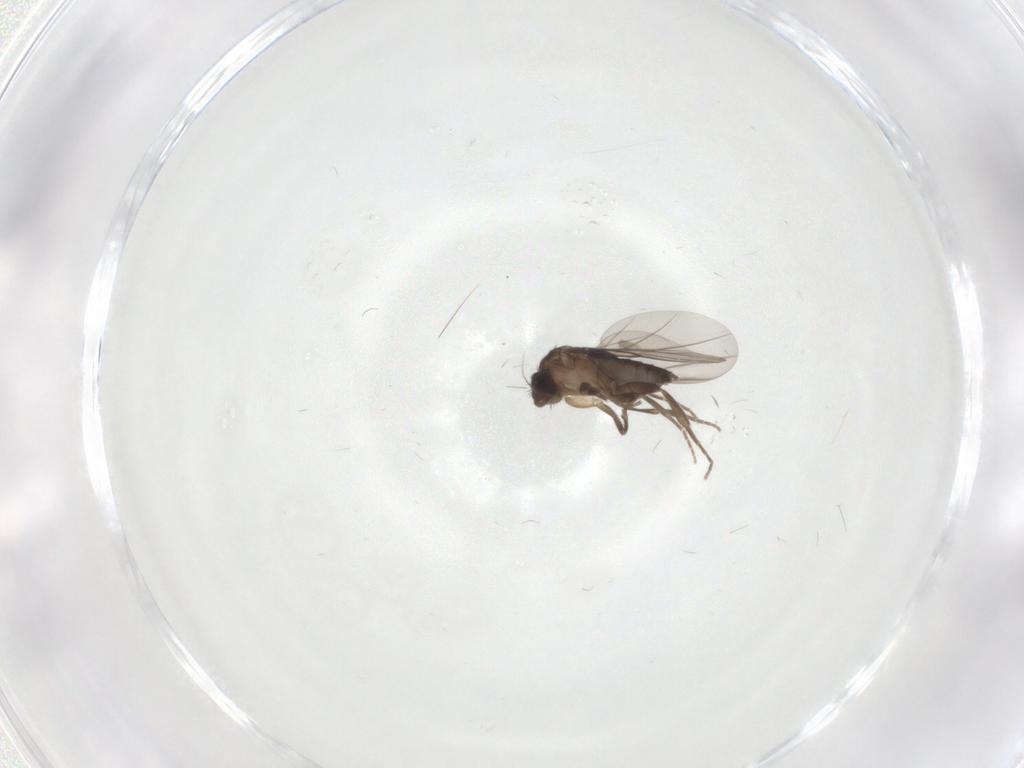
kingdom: Animalia
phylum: Arthropoda
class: Insecta
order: Diptera
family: Phoridae
